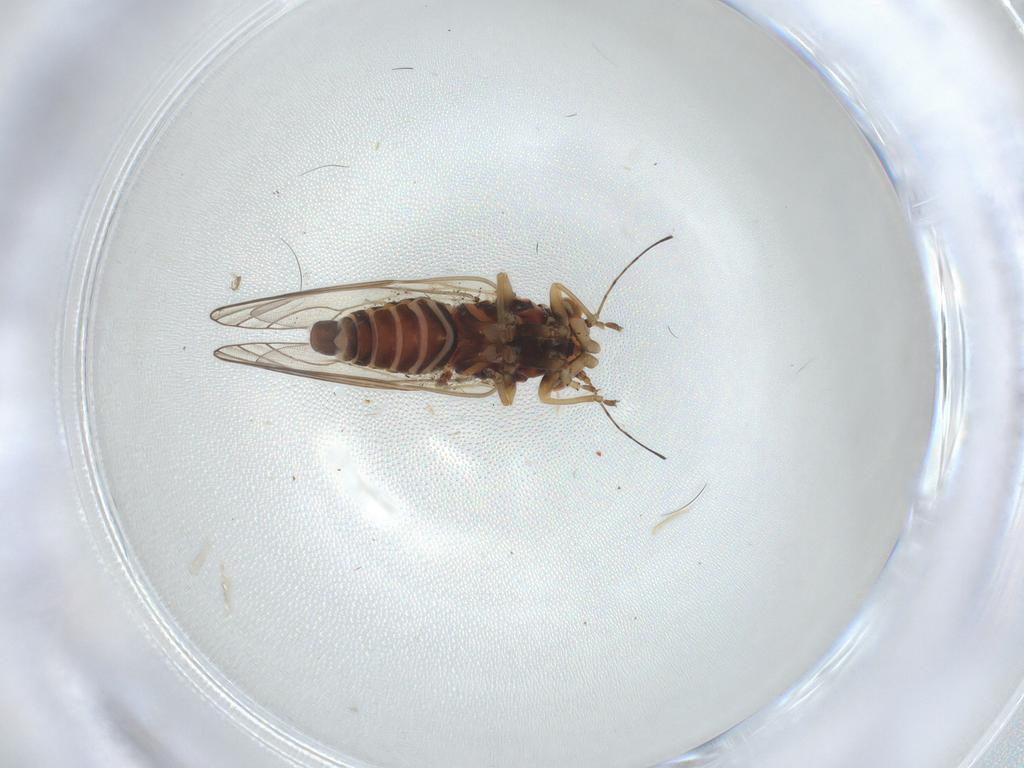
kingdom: Animalia
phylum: Arthropoda
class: Insecta
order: Hemiptera
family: Psyllidae
